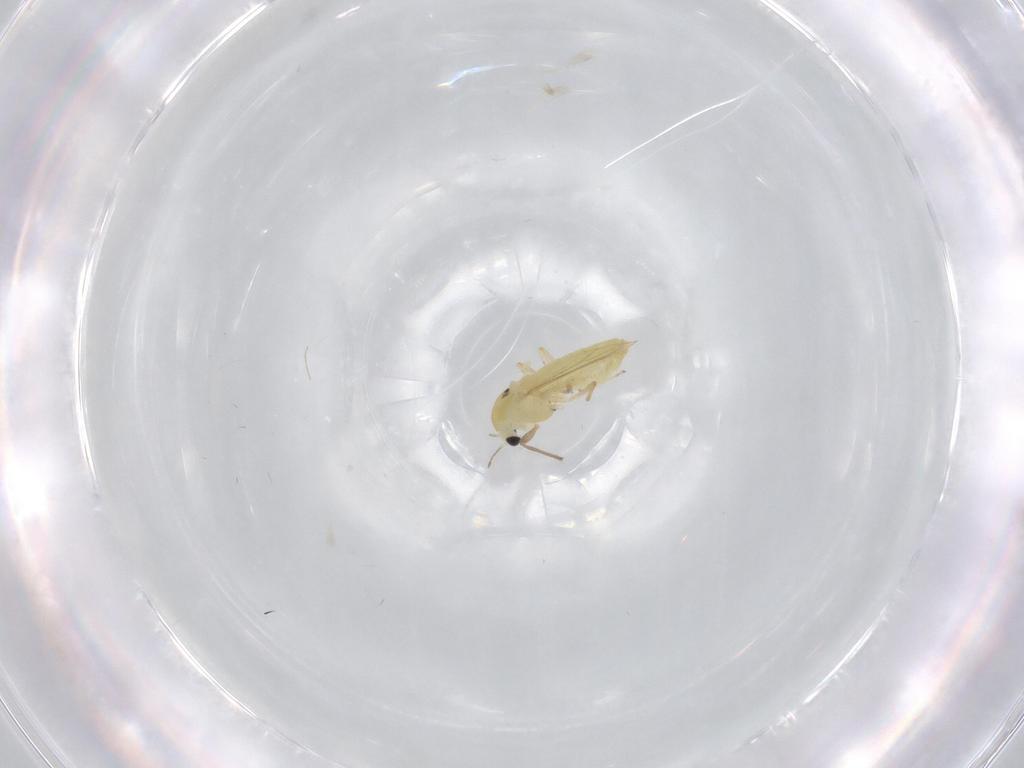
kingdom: Animalia
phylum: Arthropoda
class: Insecta
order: Diptera
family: Chironomidae
